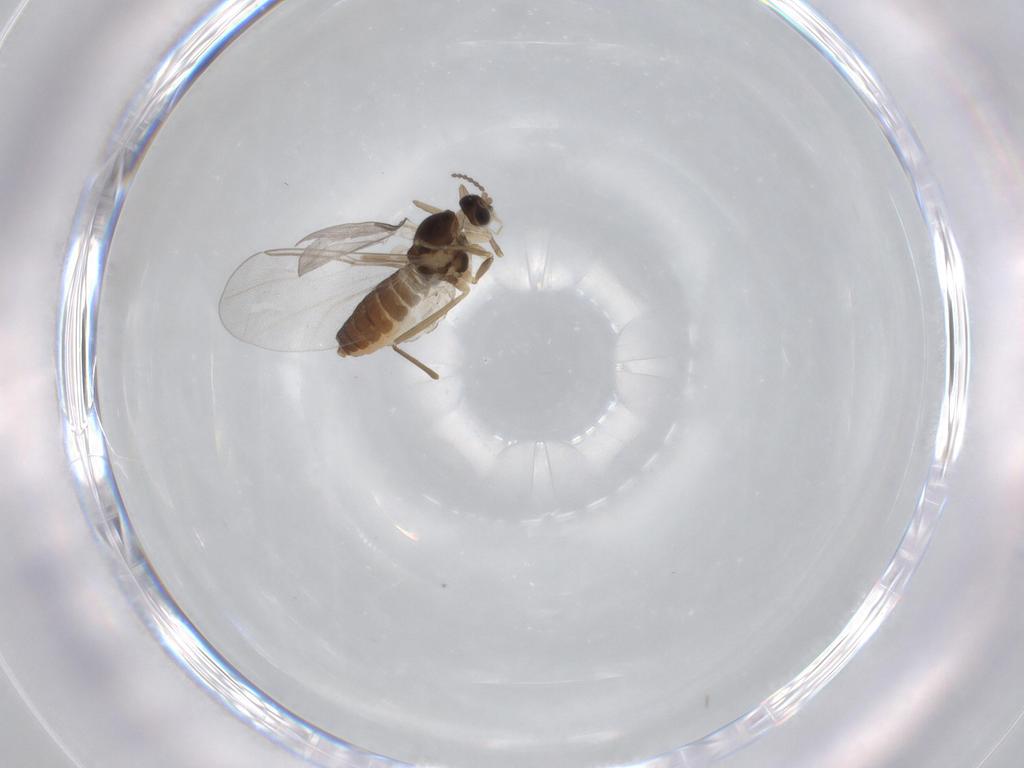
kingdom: Animalia
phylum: Arthropoda
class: Insecta
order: Diptera
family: Cecidomyiidae
